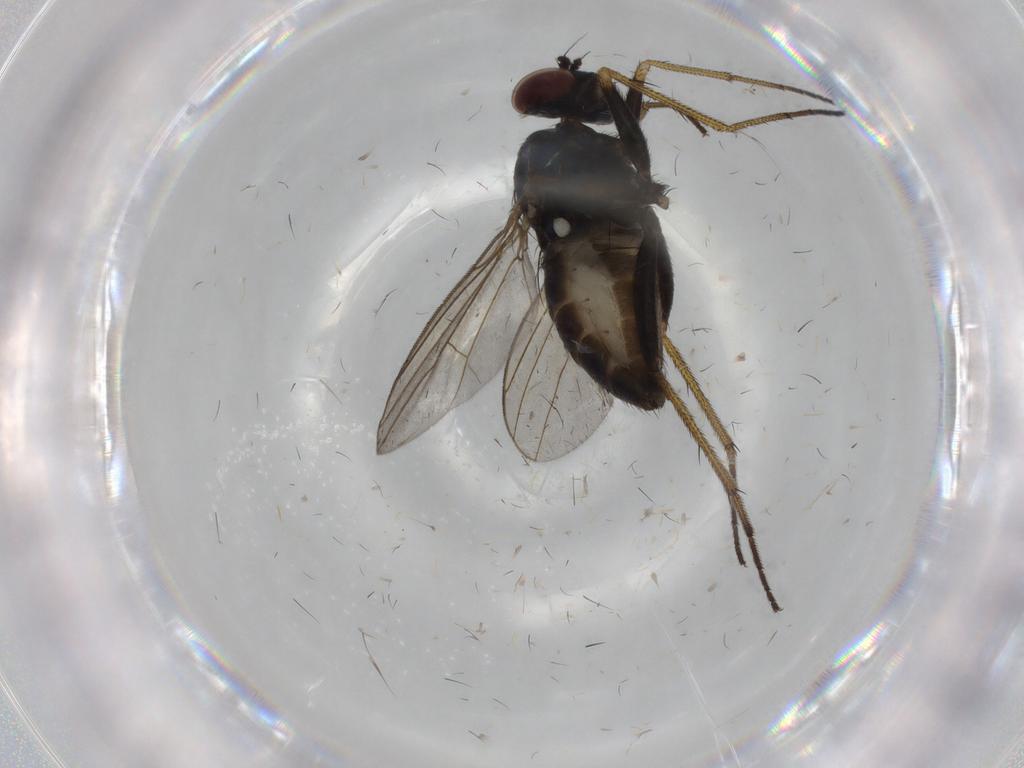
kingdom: Animalia
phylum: Arthropoda
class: Insecta
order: Diptera
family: Dolichopodidae
